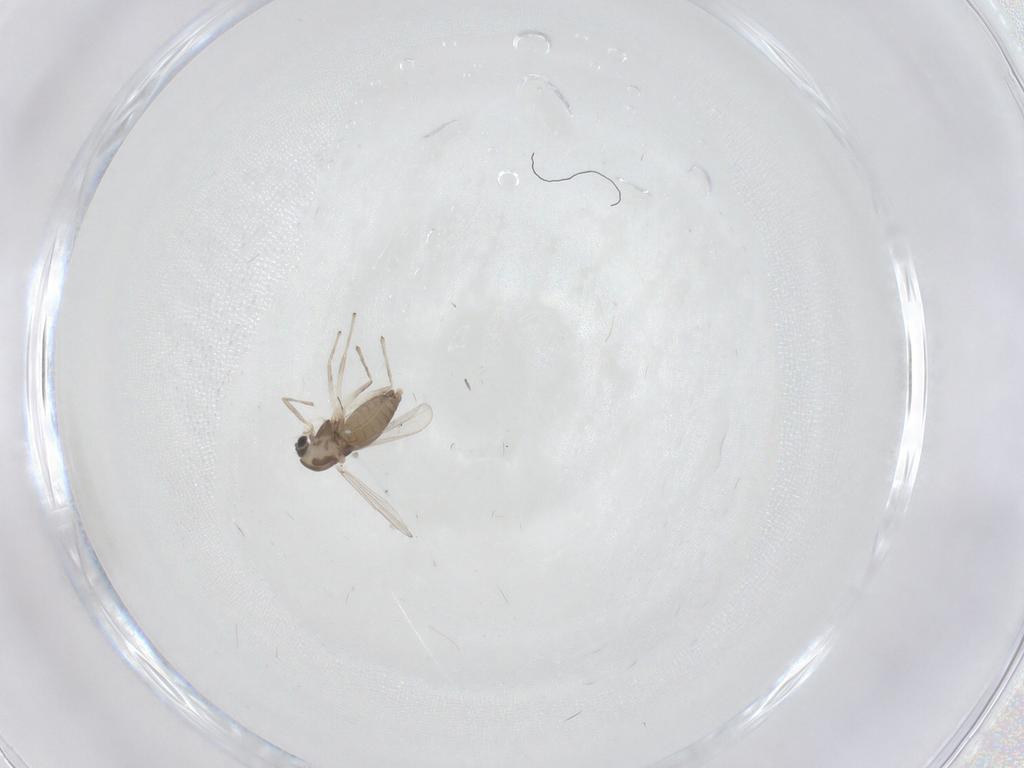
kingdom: Animalia
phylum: Arthropoda
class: Insecta
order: Diptera
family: Chironomidae
